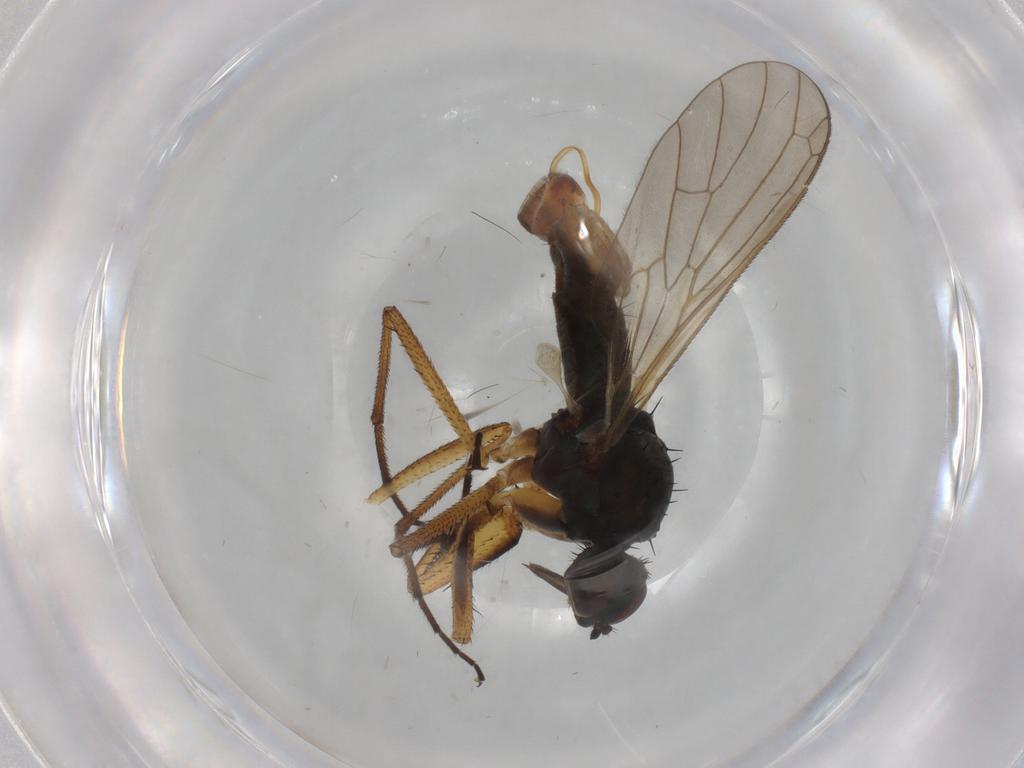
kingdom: Animalia
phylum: Arthropoda
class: Insecta
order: Diptera
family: Empididae
